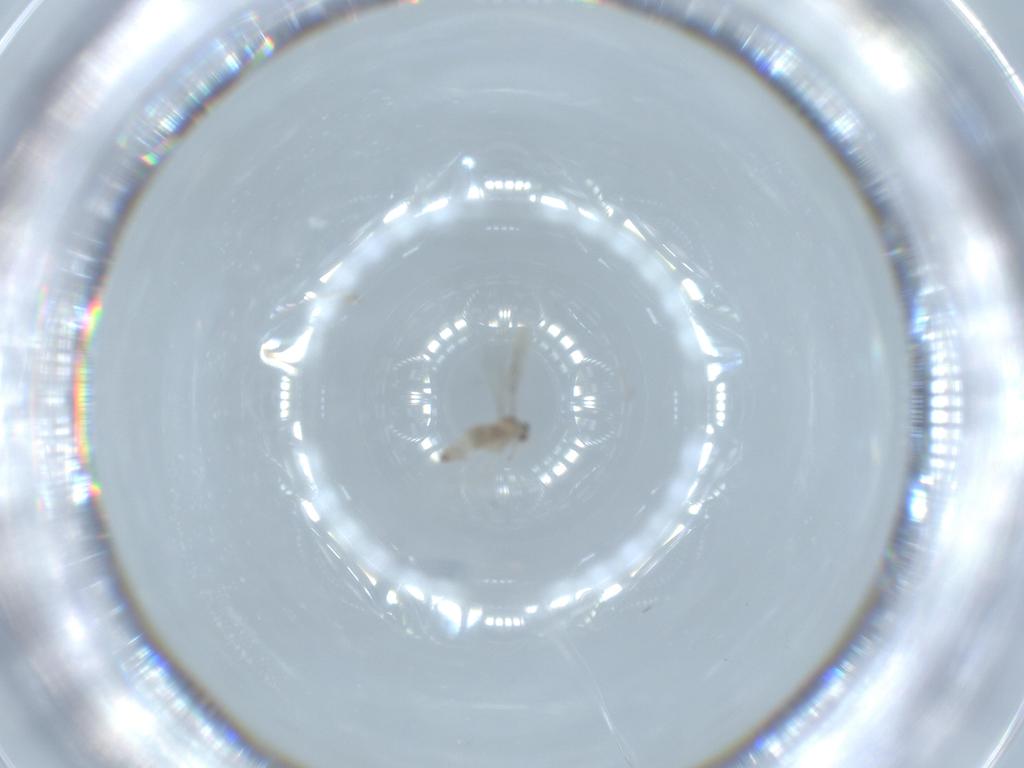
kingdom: Animalia
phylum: Arthropoda
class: Insecta
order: Diptera
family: Cecidomyiidae
